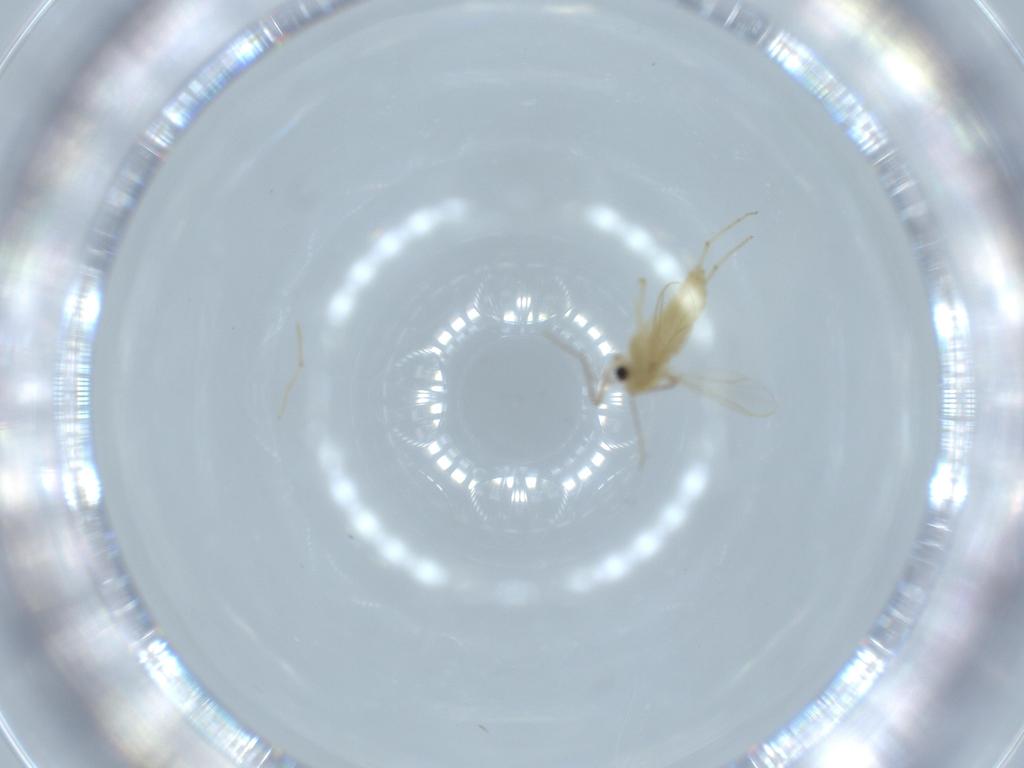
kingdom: Animalia
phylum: Arthropoda
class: Insecta
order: Diptera
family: Chironomidae
